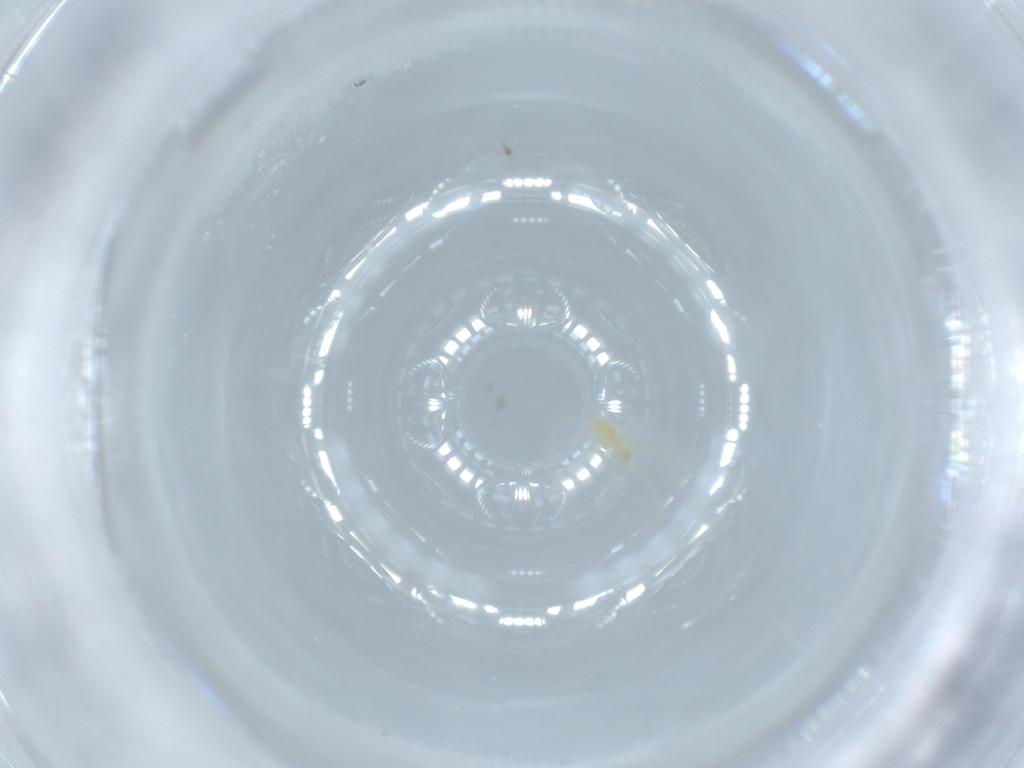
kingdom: Animalia
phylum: Arthropoda
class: Arachnida
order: Trombidiformes
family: Erythraeidae
